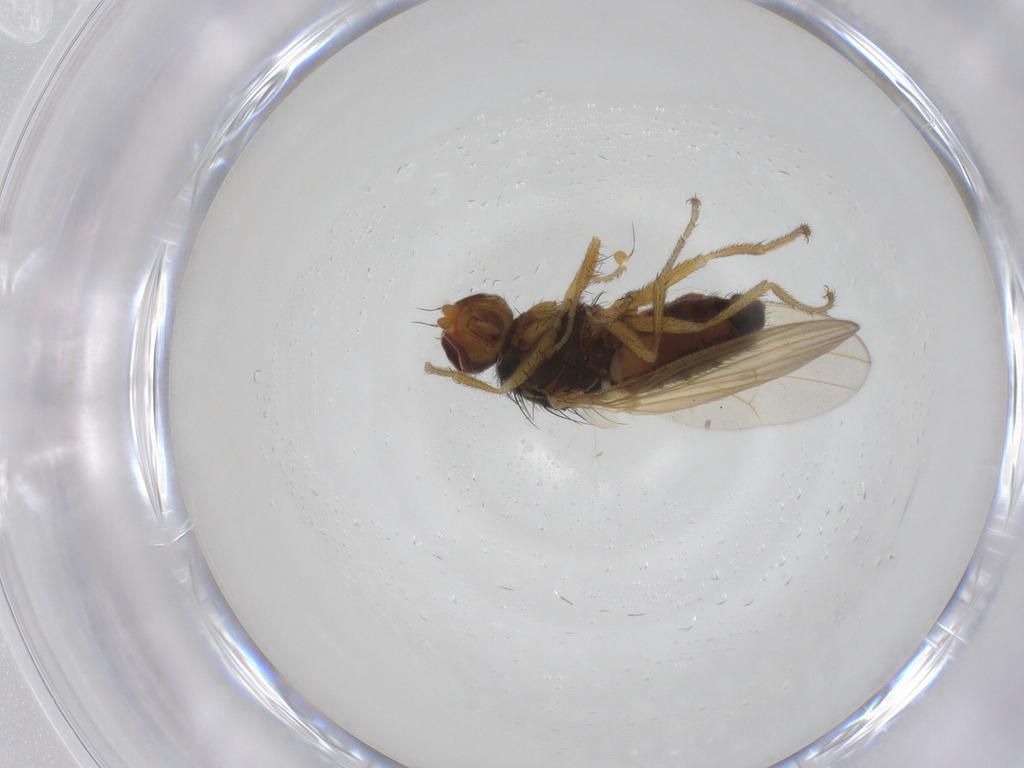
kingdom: Animalia
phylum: Arthropoda
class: Insecta
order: Diptera
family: Heleomyzidae
